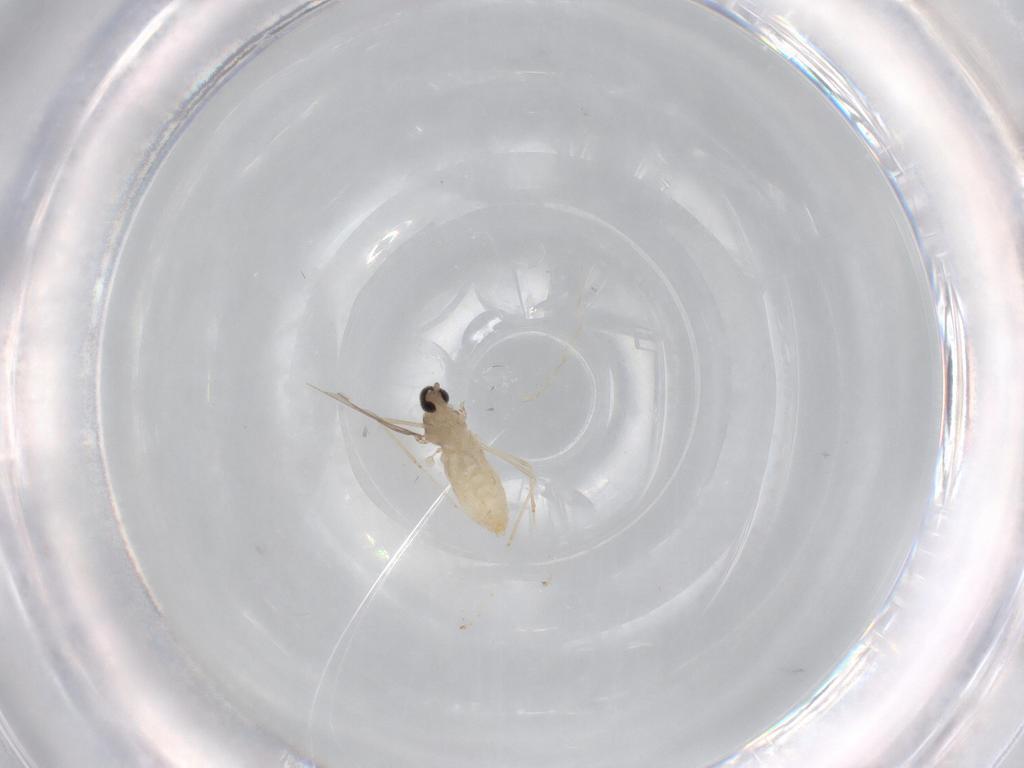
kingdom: Animalia
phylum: Arthropoda
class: Insecta
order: Diptera
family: Cecidomyiidae
